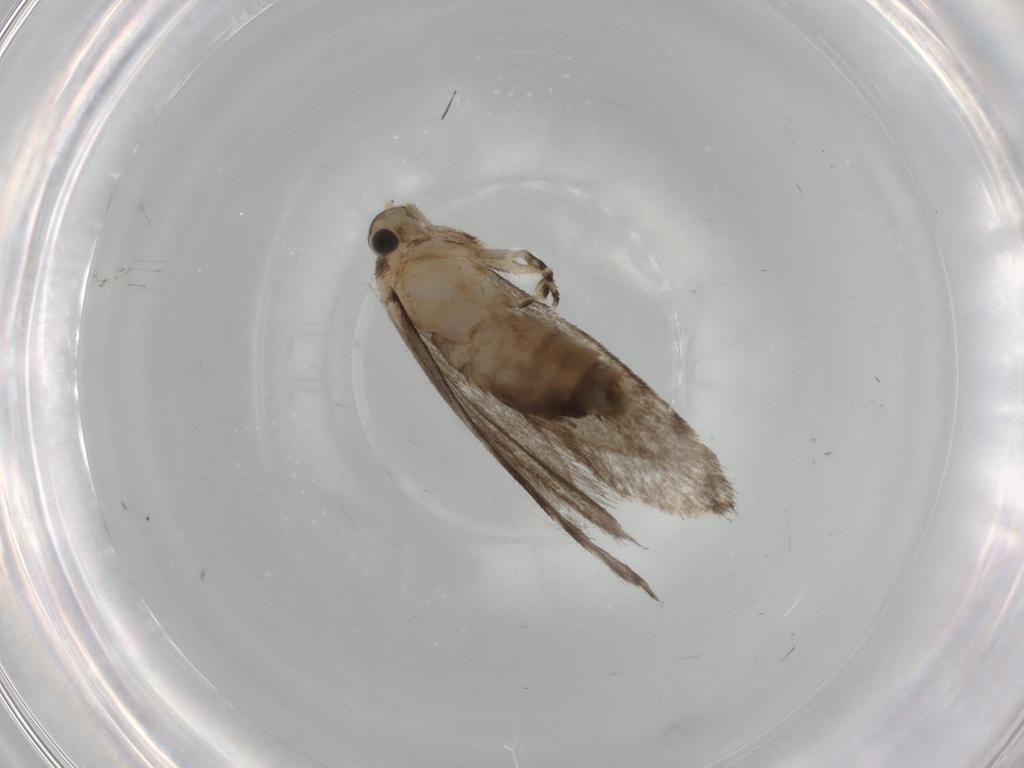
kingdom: Animalia
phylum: Arthropoda
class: Insecta
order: Lepidoptera
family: Tineidae
